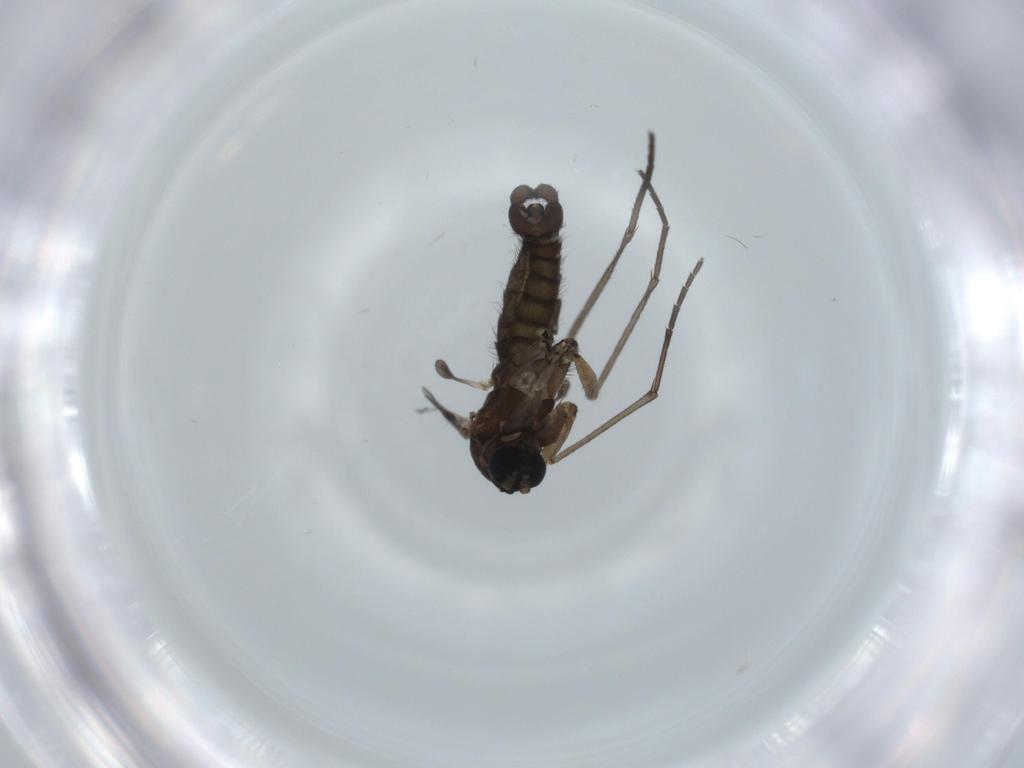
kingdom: Animalia
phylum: Arthropoda
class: Insecta
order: Diptera
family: Sciaridae
